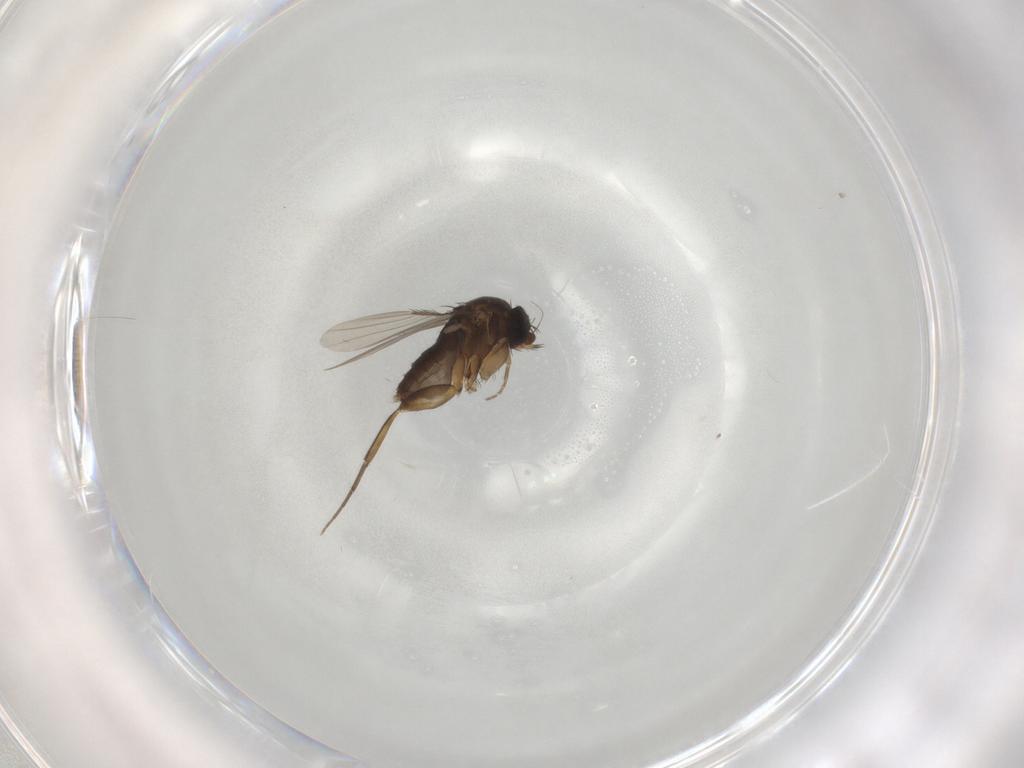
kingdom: Animalia
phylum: Arthropoda
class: Insecta
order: Diptera
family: Phoridae
